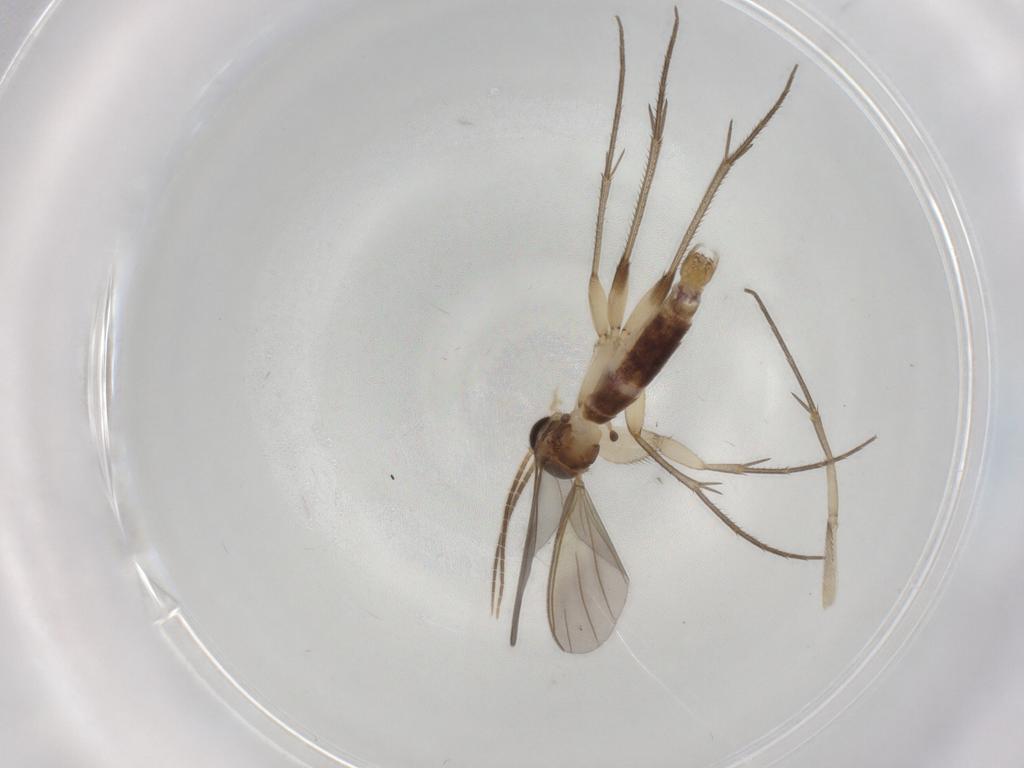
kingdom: Animalia
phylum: Arthropoda
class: Insecta
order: Diptera
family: Mycetophilidae
